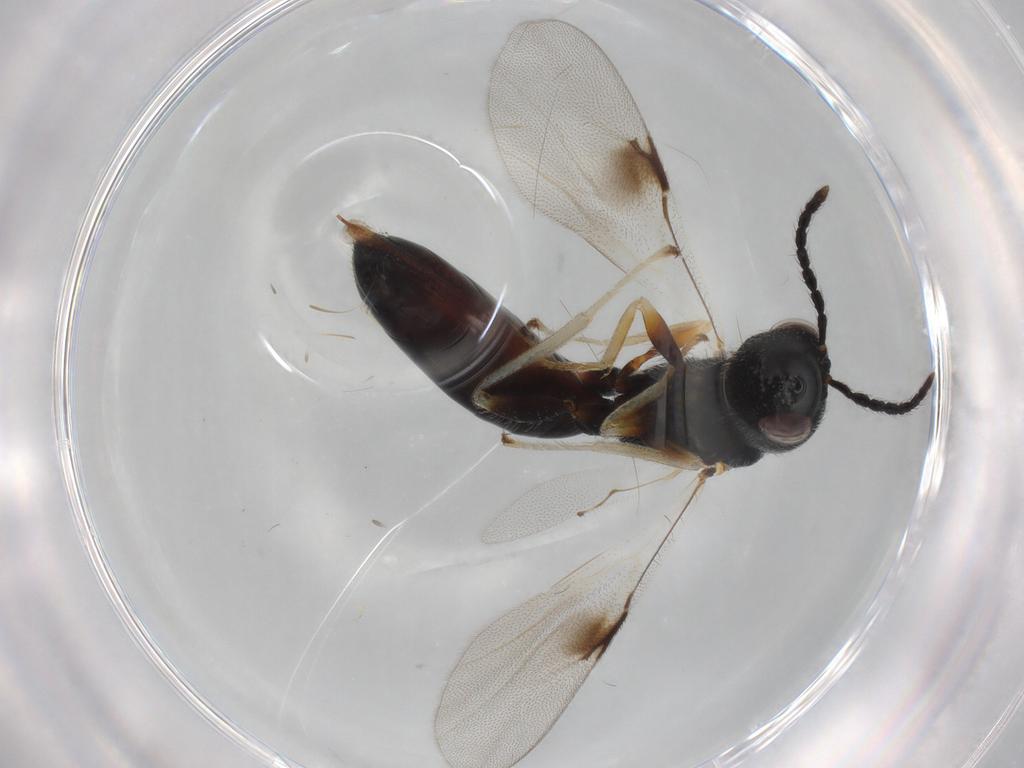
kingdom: Animalia
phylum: Arthropoda
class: Insecta
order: Hymenoptera
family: Eurytomidae
